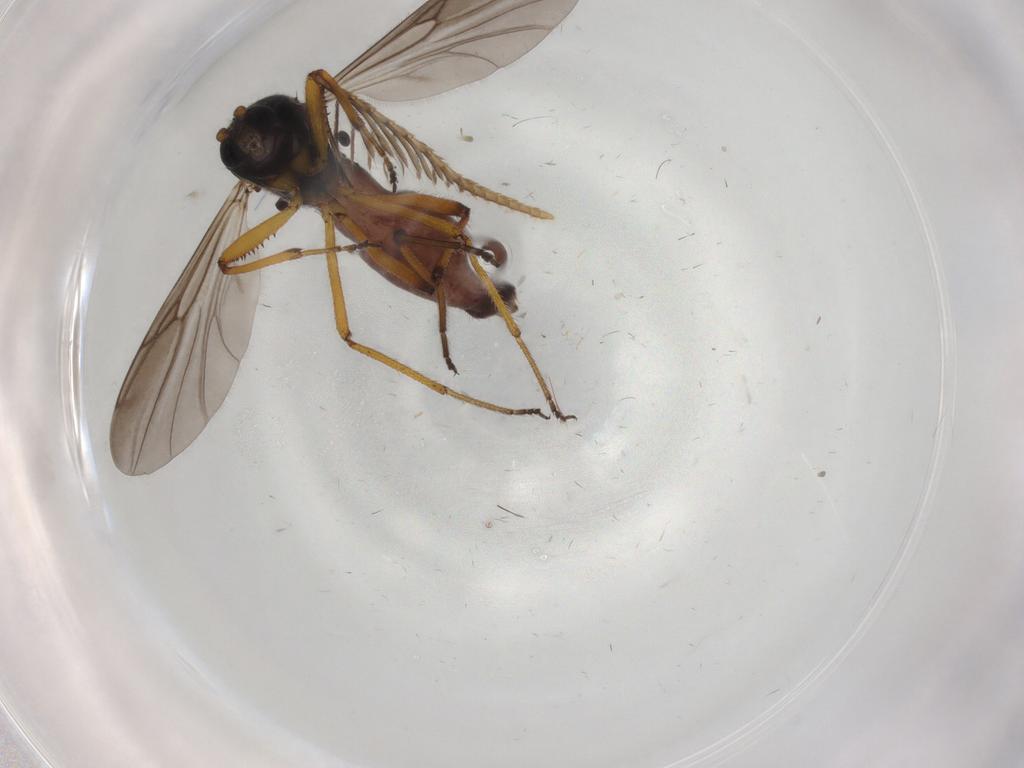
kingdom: Animalia
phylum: Arthropoda
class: Insecta
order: Diptera
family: Ceratopogonidae
